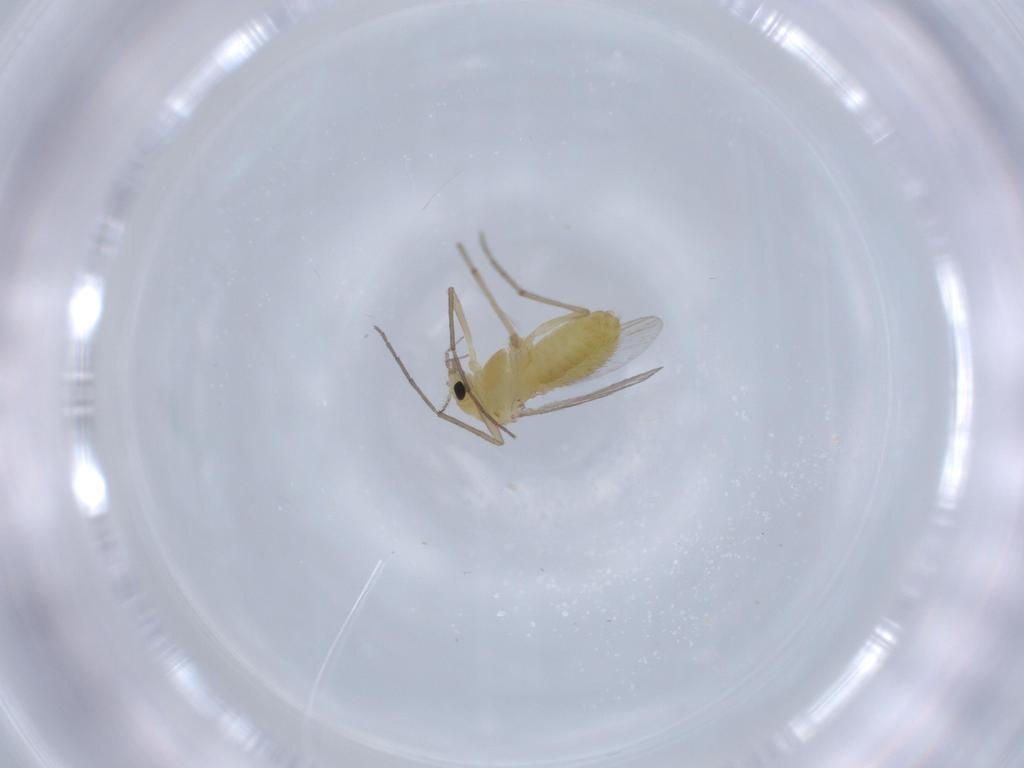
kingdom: Animalia
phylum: Arthropoda
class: Insecta
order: Diptera
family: Chironomidae
